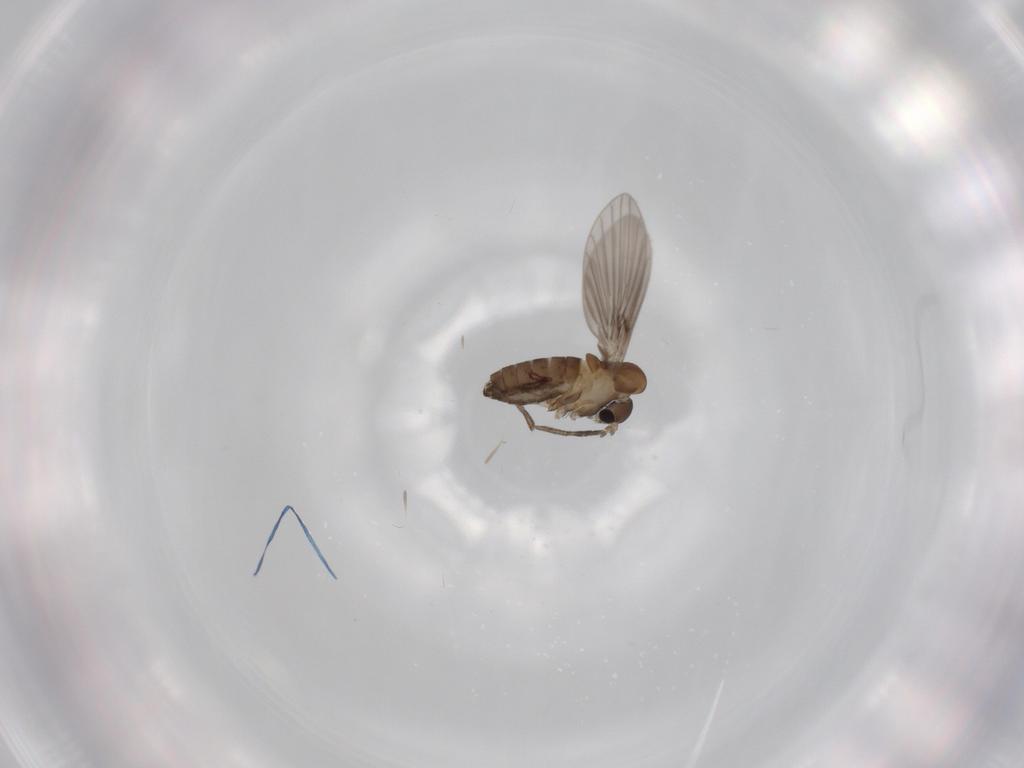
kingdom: Animalia
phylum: Arthropoda
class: Insecta
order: Diptera
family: Psychodidae
